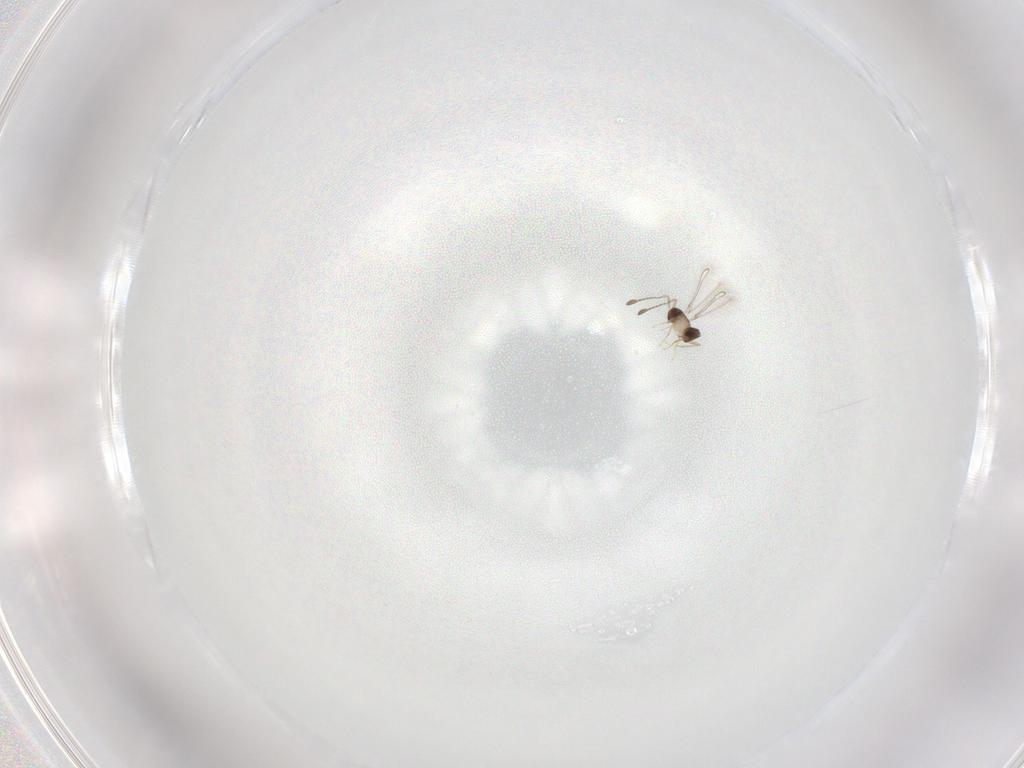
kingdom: Animalia
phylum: Arthropoda
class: Insecta
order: Hymenoptera
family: Mymaridae
